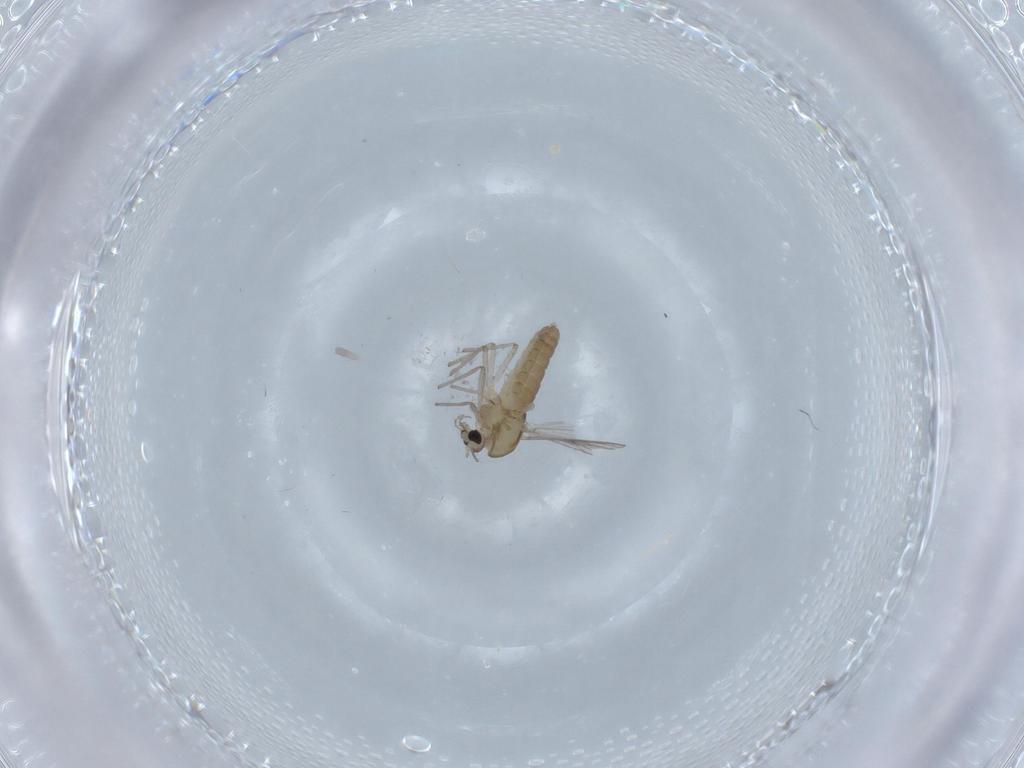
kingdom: Animalia
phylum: Arthropoda
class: Insecta
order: Diptera
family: Chironomidae
